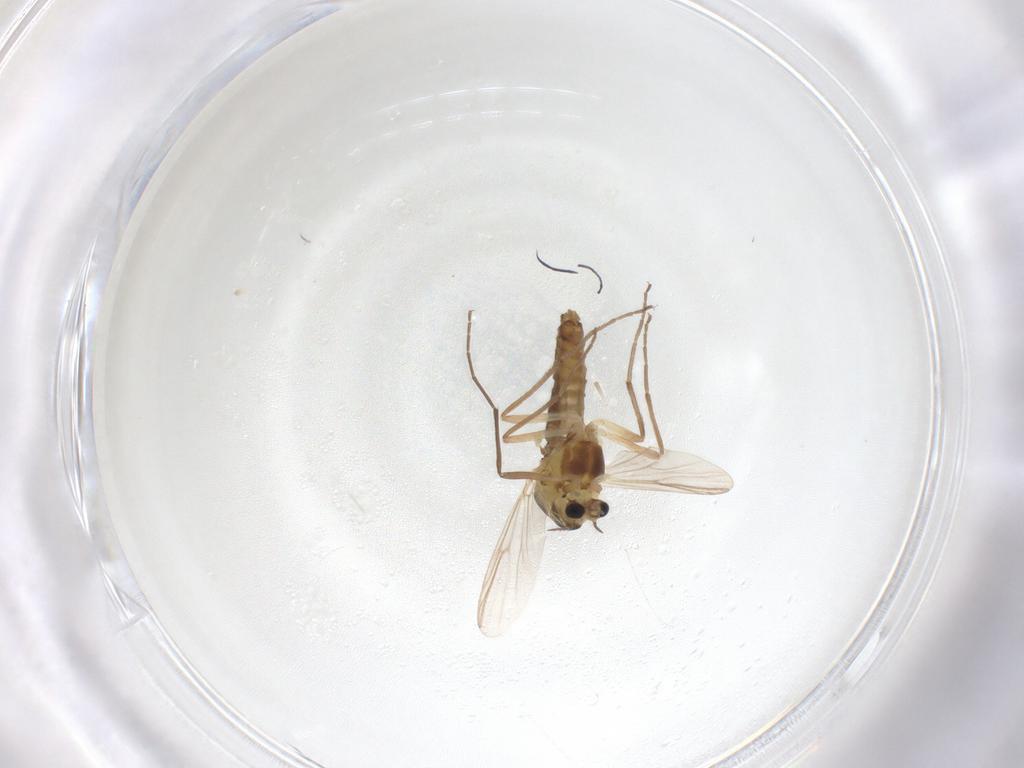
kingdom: Animalia
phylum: Arthropoda
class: Insecta
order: Diptera
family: Chironomidae
